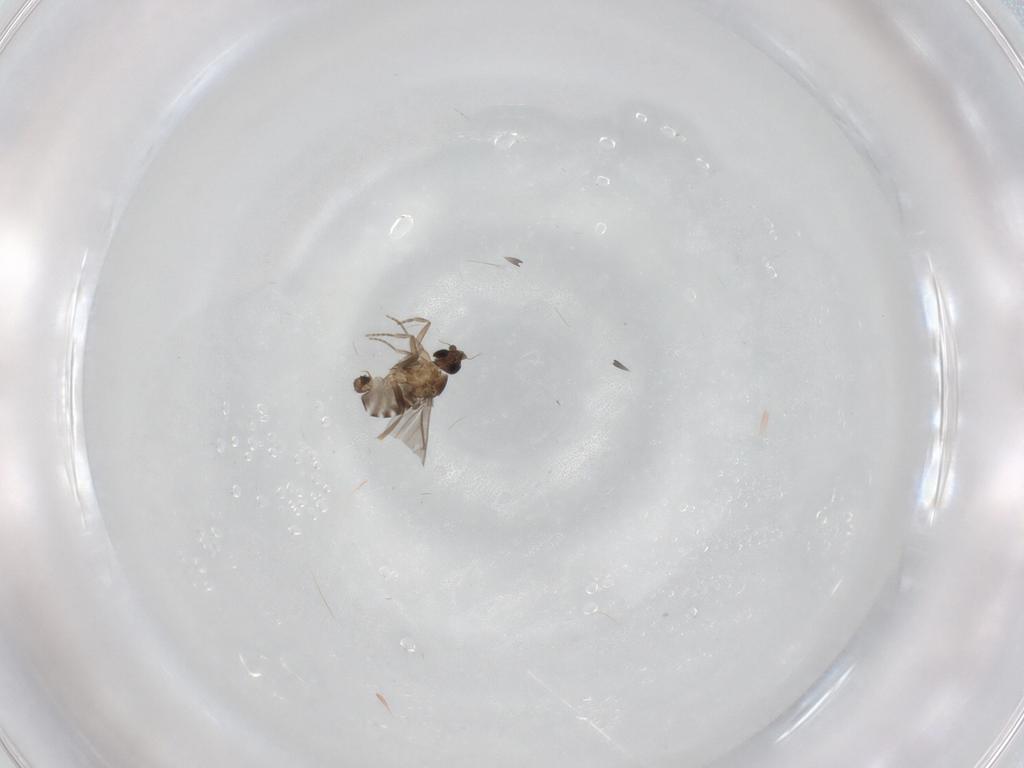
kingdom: Animalia
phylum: Arthropoda
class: Insecta
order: Diptera
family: Phoridae
